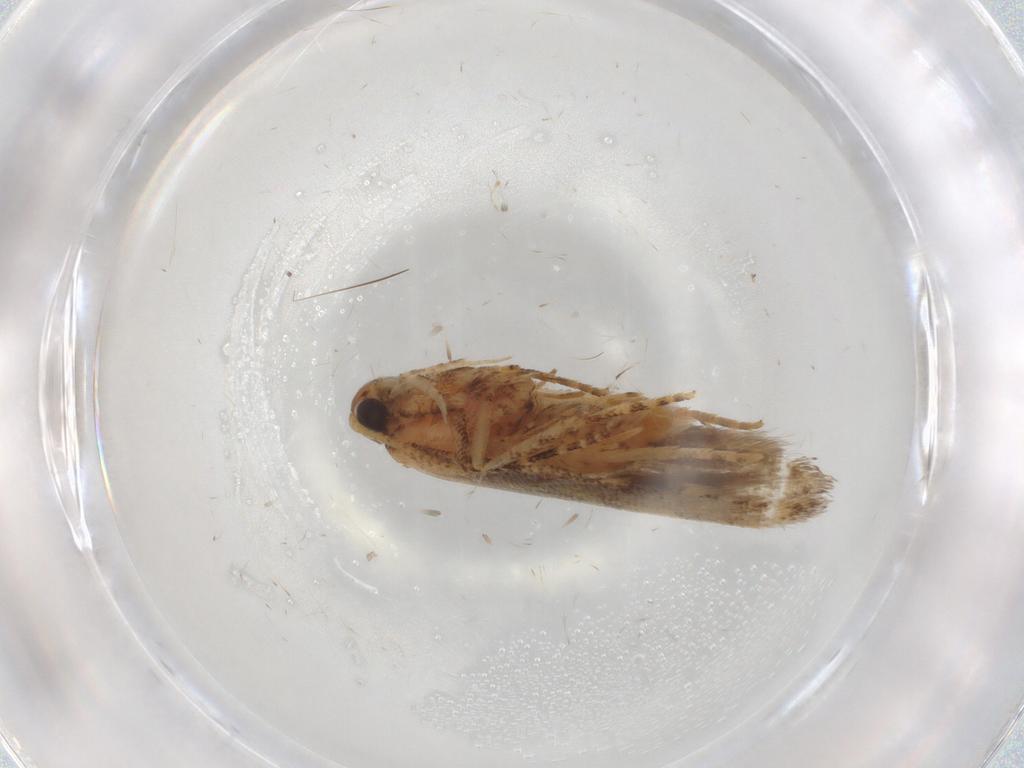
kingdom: Animalia
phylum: Arthropoda
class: Insecta
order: Lepidoptera
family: Plutellidae
